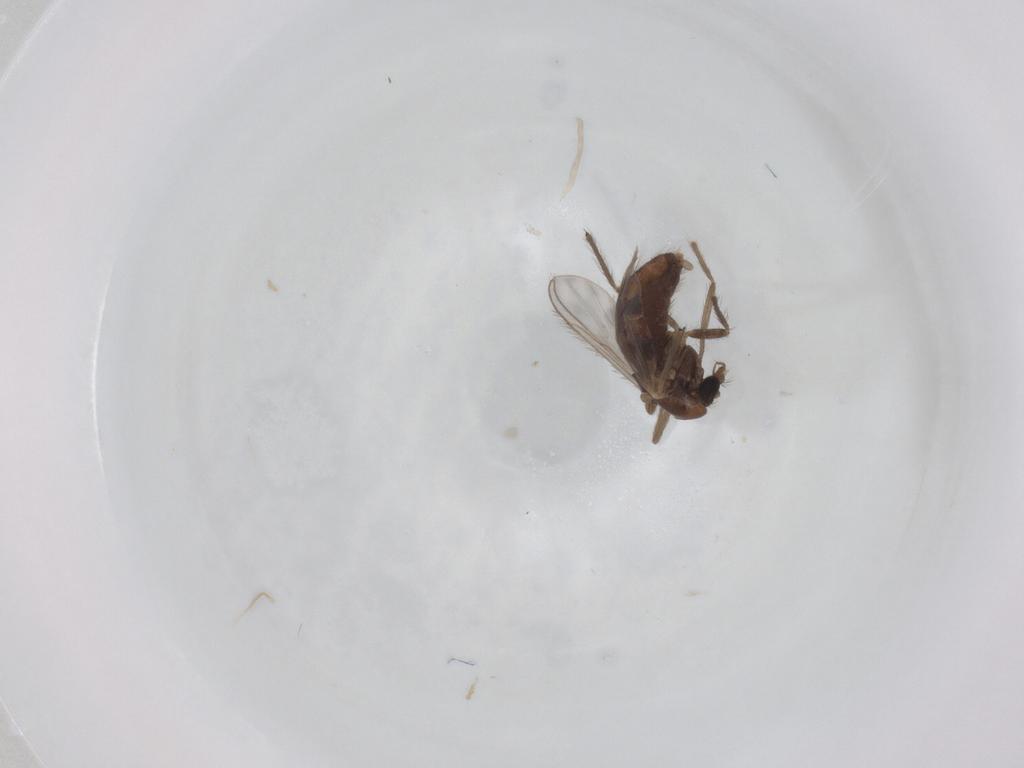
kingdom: Animalia
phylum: Arthropoda
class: Insecta
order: Diptera
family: Chironomidae
